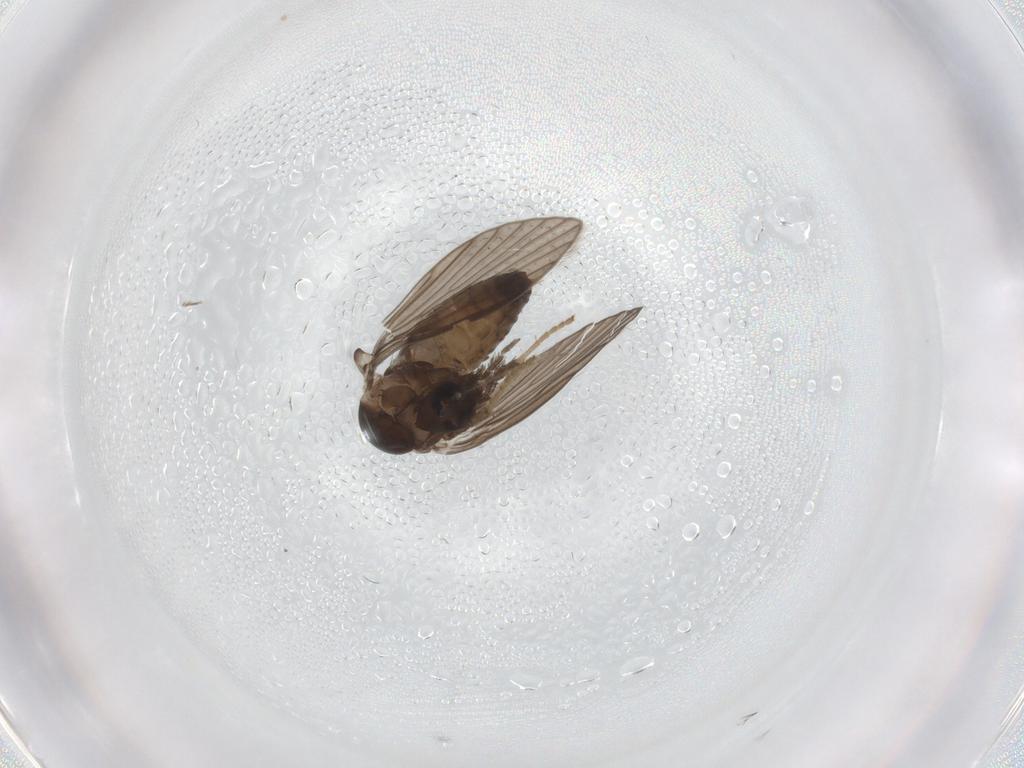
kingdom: Animalia
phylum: Arthropoda
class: Insecta
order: Diptera
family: Psychodidae
